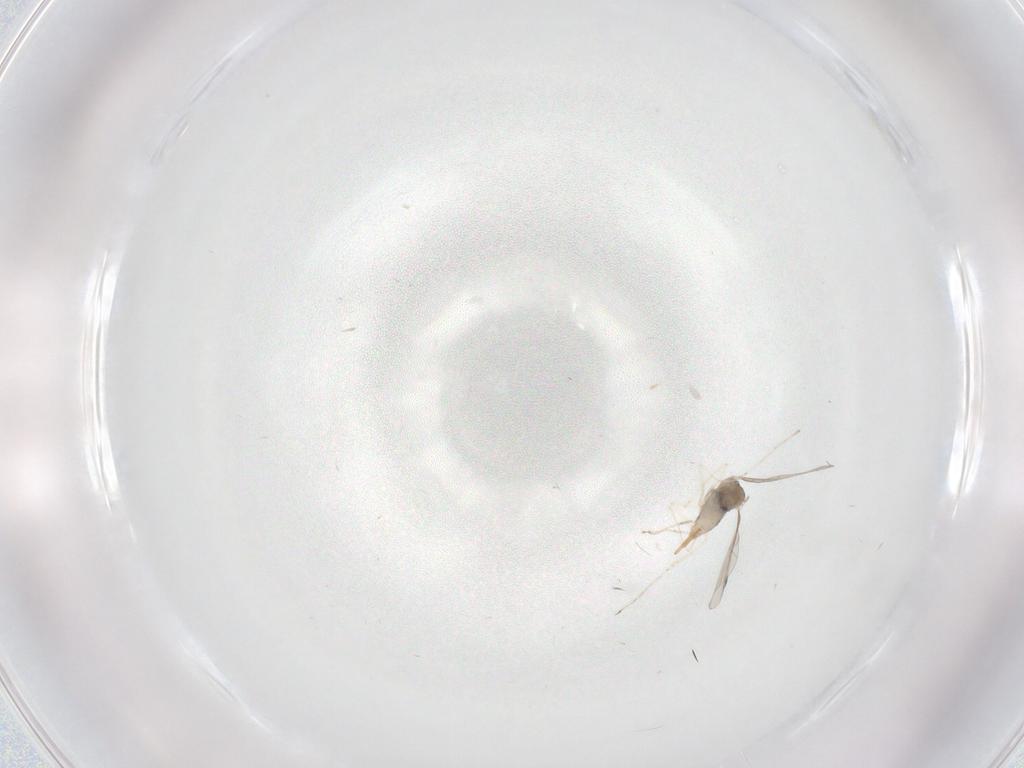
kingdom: Animalia
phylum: Arthropoda
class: Insecta
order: Diptera
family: Cecidomyiidae
